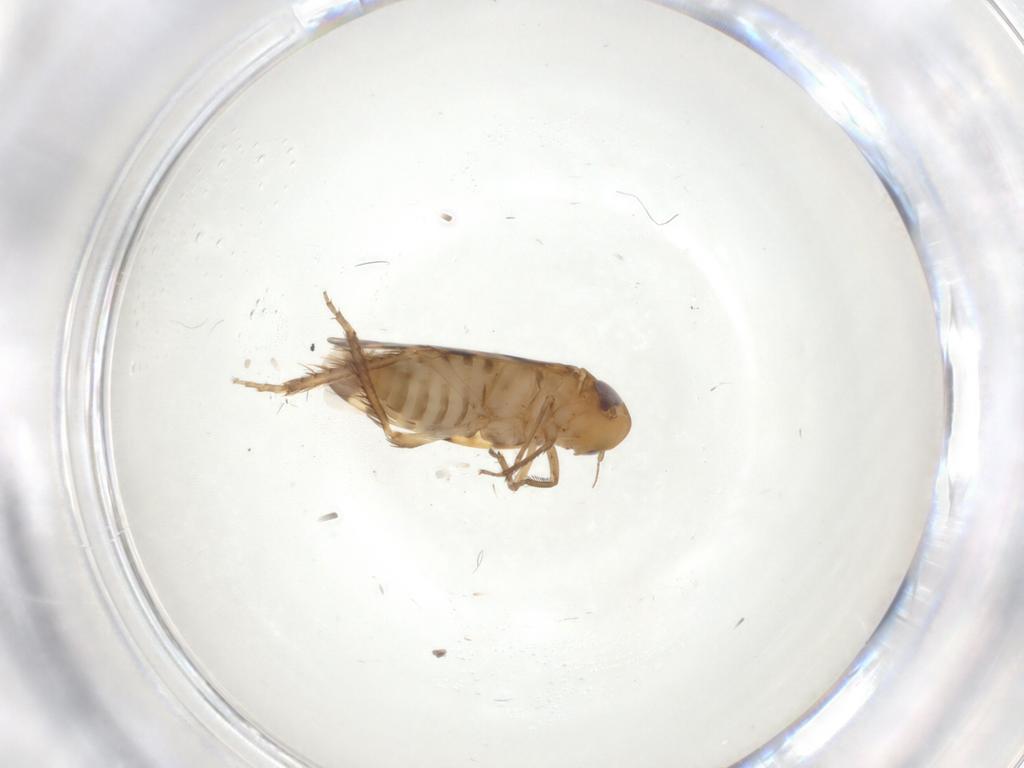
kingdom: Animalia
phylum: Arthropoda
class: Insecta
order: Hemiptera
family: Cicadellidae
